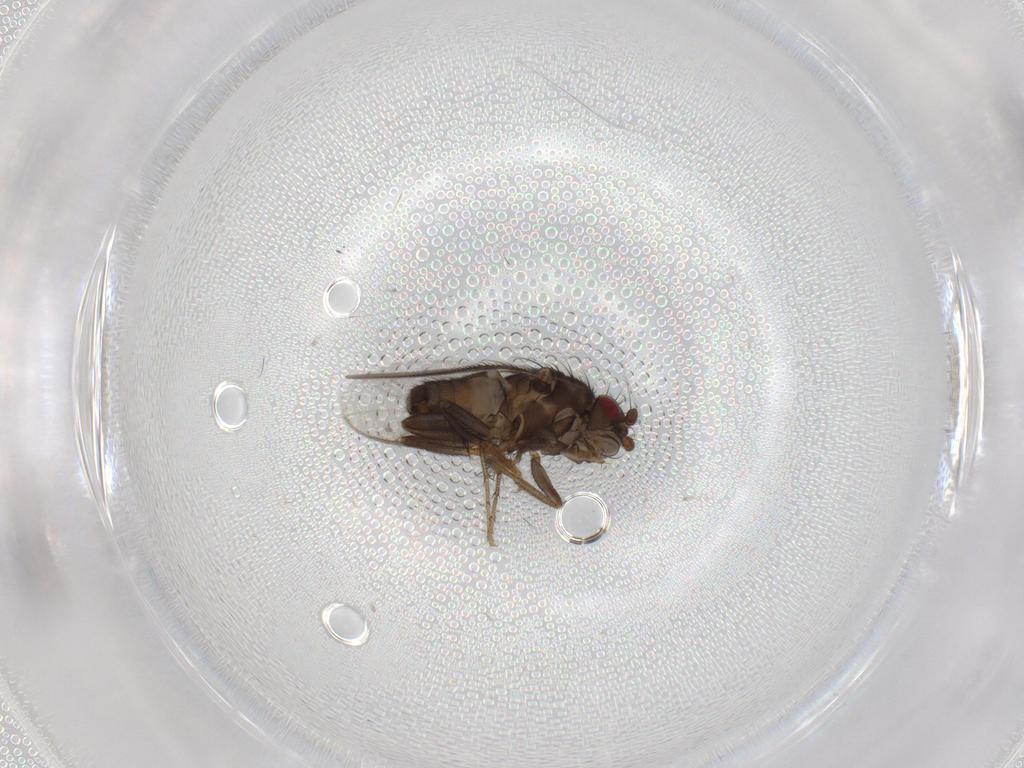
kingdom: Animalia
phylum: Arthropoda
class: Insecta
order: Diptera
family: Sphaeroceridae
